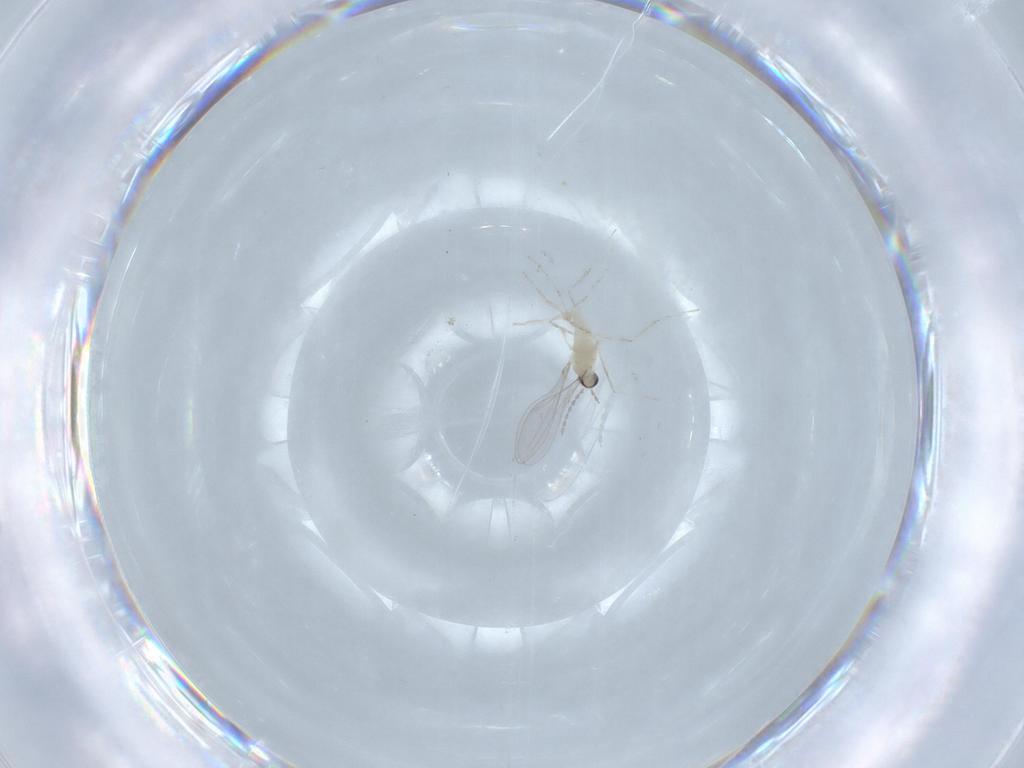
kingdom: Animalia
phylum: Arthropoda
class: Insecta
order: Diptera
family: Cecidomyiidae
